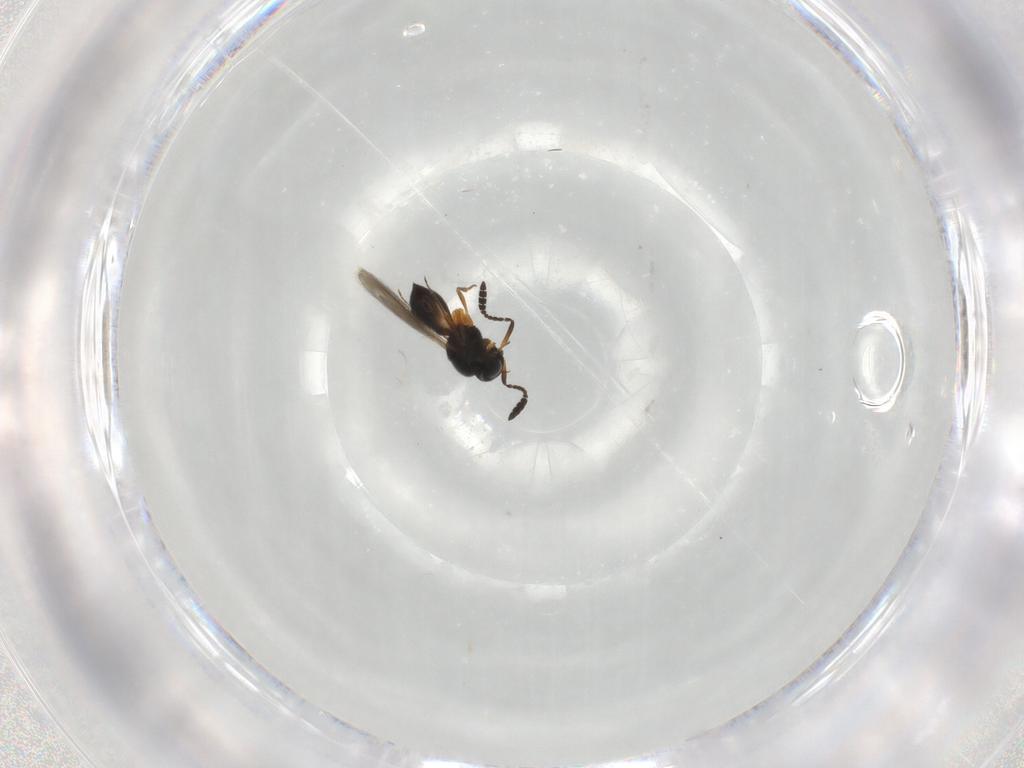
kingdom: Animalia
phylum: Arthropoda
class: Insecta
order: Hymenoptera
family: Scelionidae
